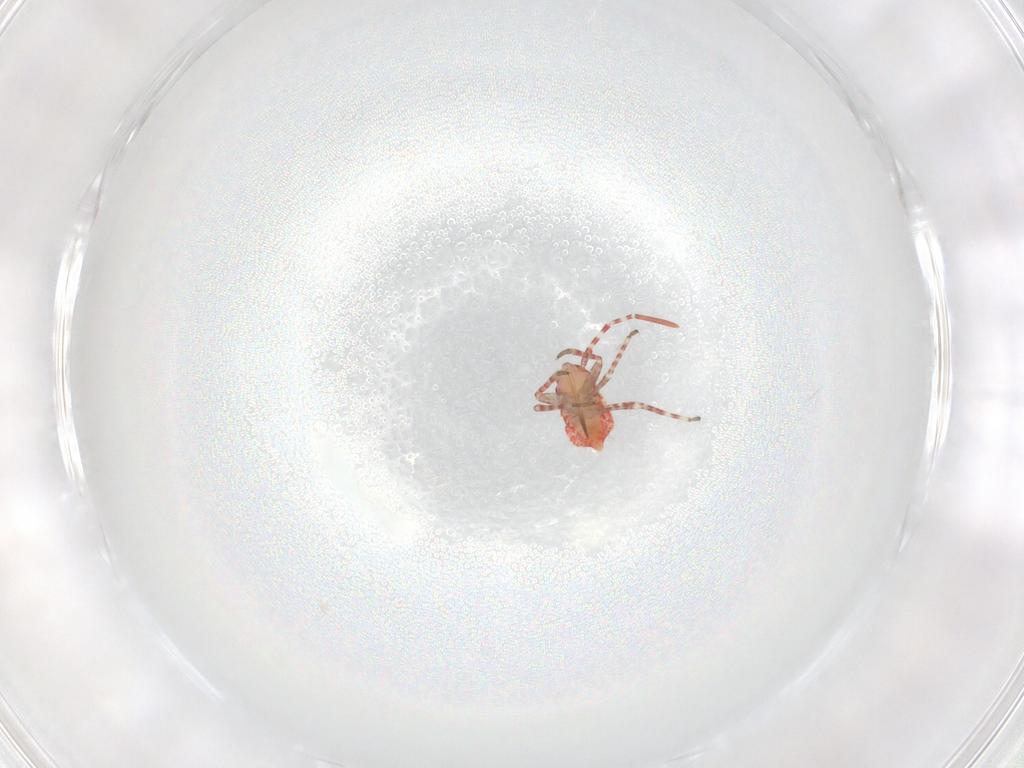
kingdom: Animalia
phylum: Arthropoda
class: Insecta
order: Hemiptera
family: Miridae
